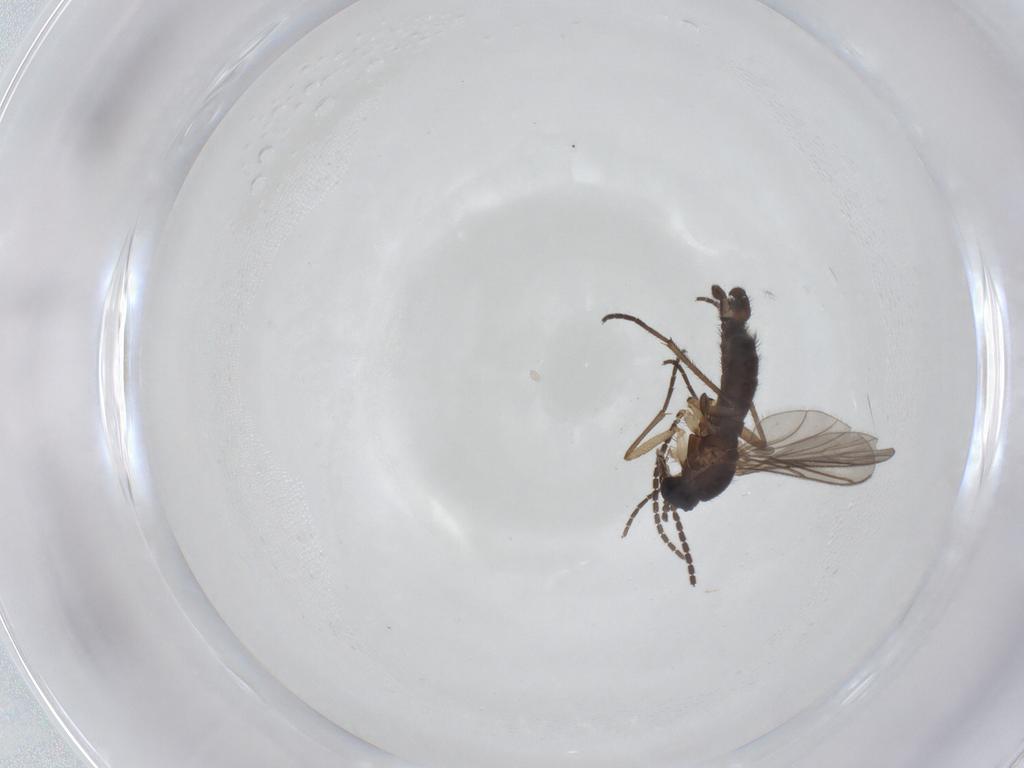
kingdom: Animalia
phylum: Arthropoda
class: Insecta
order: Diptera
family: Sciaridae
